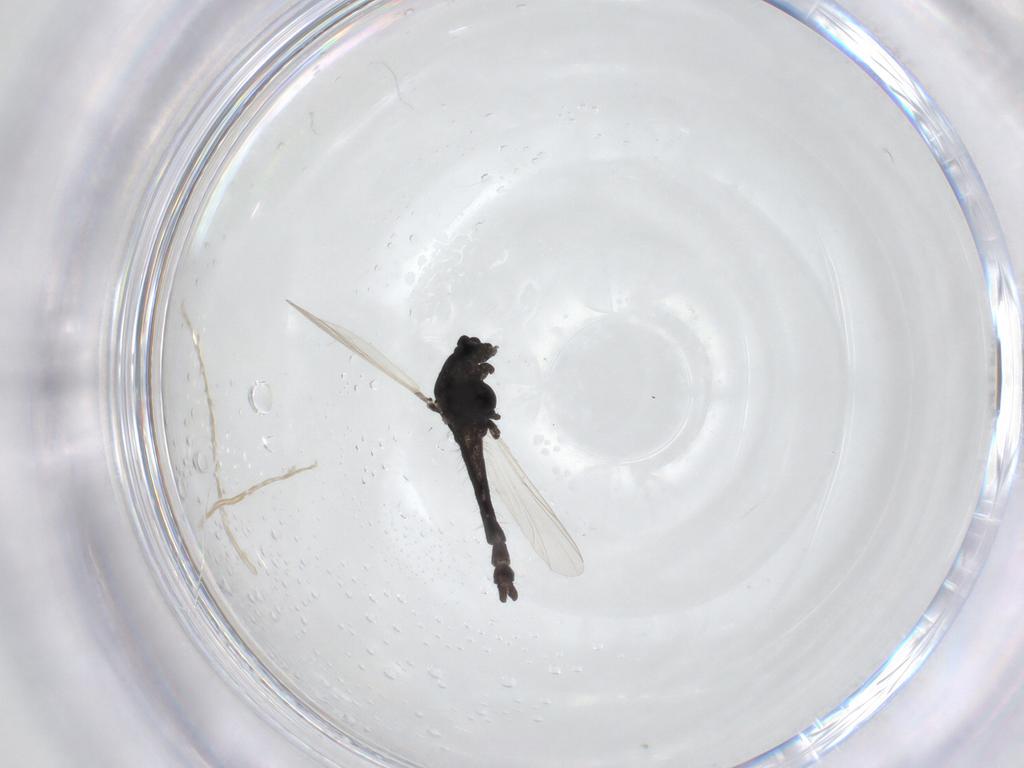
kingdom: Animalia
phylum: Arthropoda
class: Insecta
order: Diptera
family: Chironomidae
